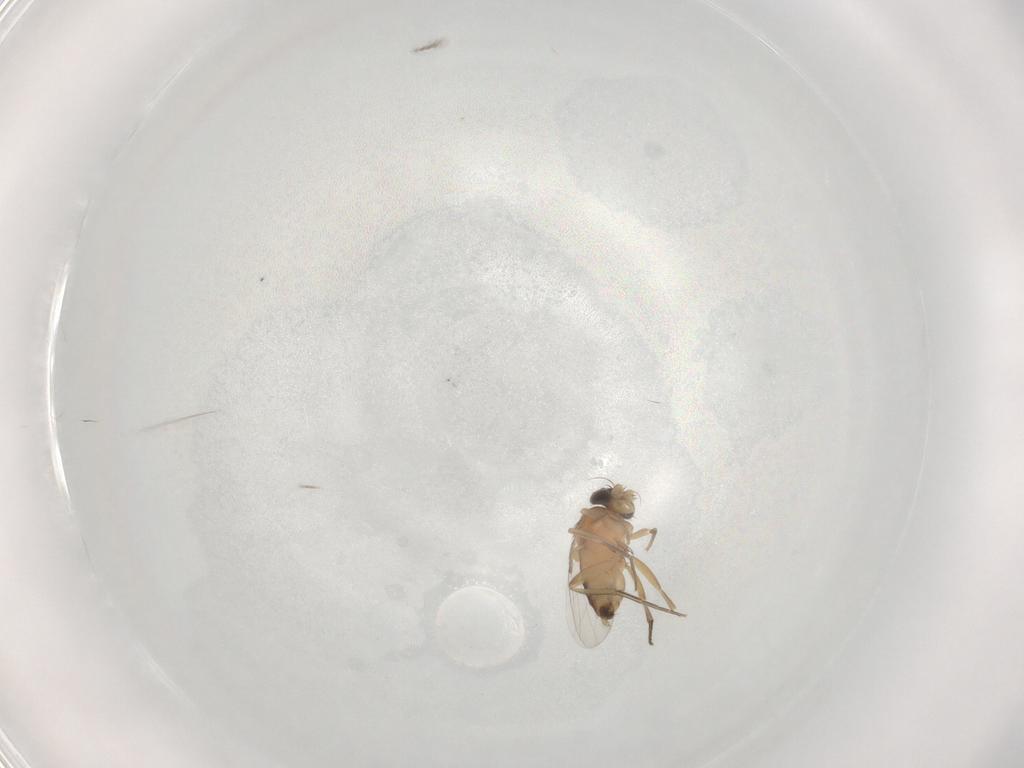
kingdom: Animalia
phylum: Arthropoda
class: Insecta
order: Diptera
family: Phoridae
